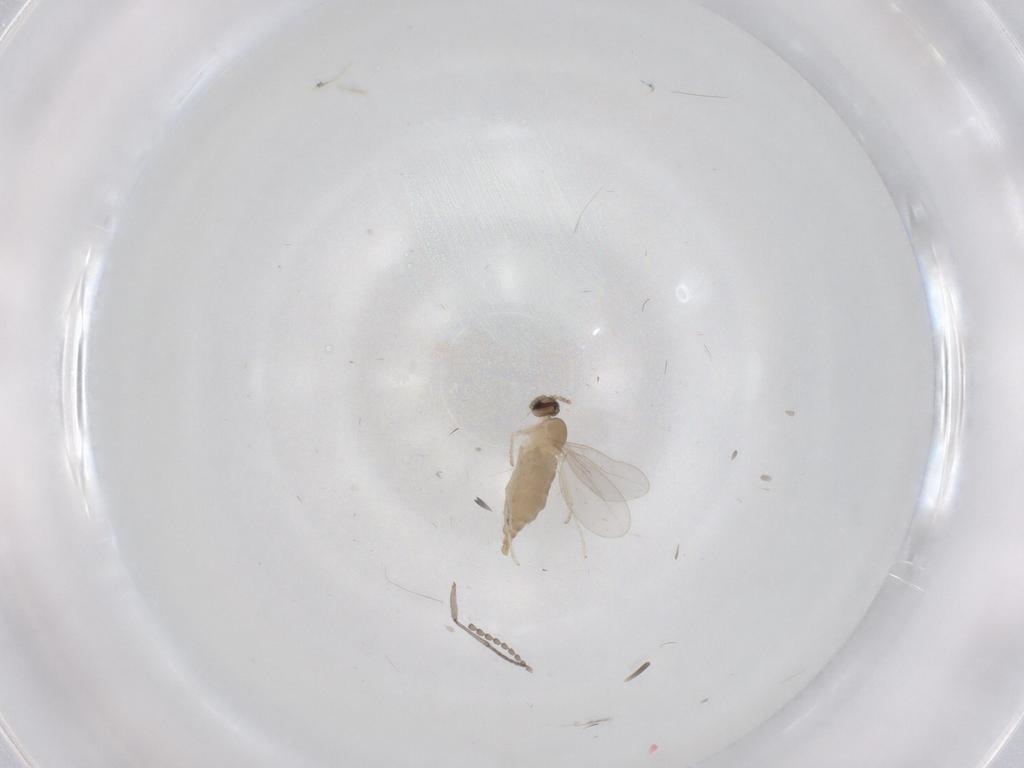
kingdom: Animalia
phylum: Arthropoda
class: Insecta
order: Diptera
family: Cecidomyiidae
